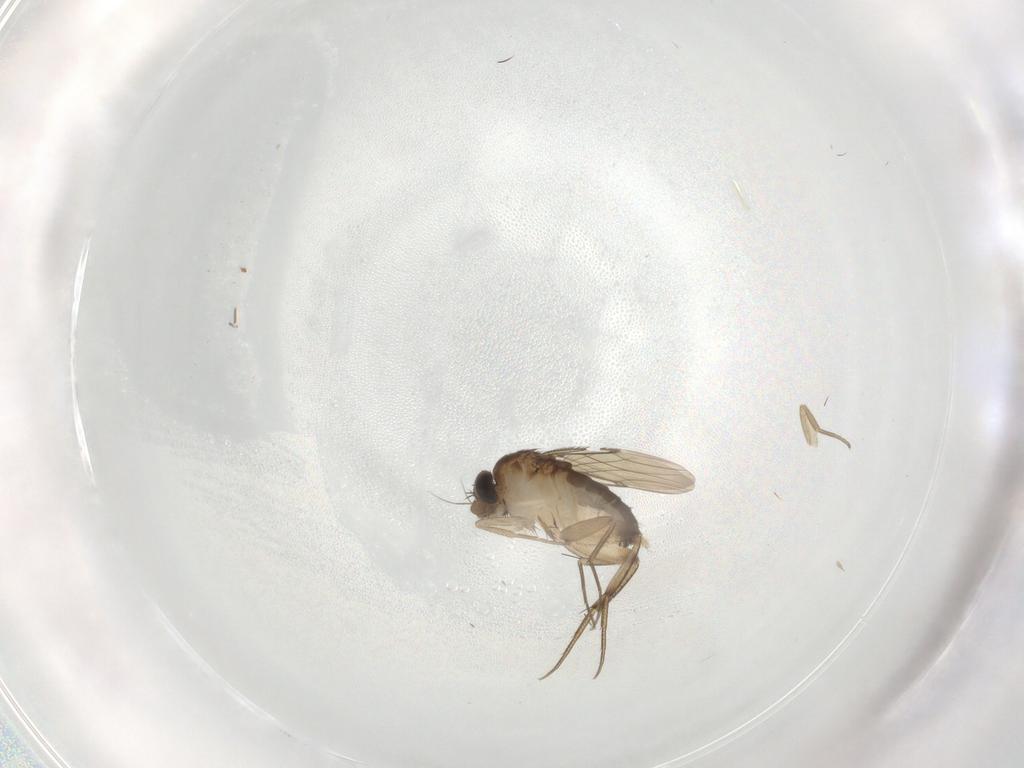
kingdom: Animalia
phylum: Arthropoda
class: Insecta
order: Diptera
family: Phoridae
